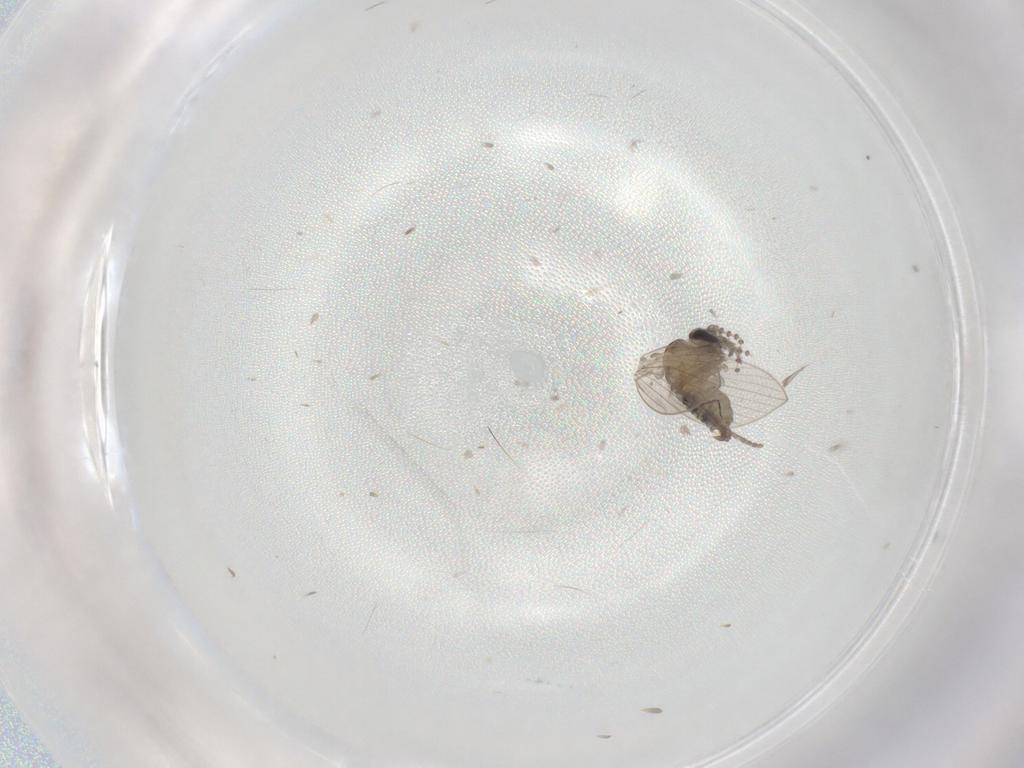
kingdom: Animalia
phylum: Arthropoda
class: Insecta
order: Diptera
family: Psychodidae
